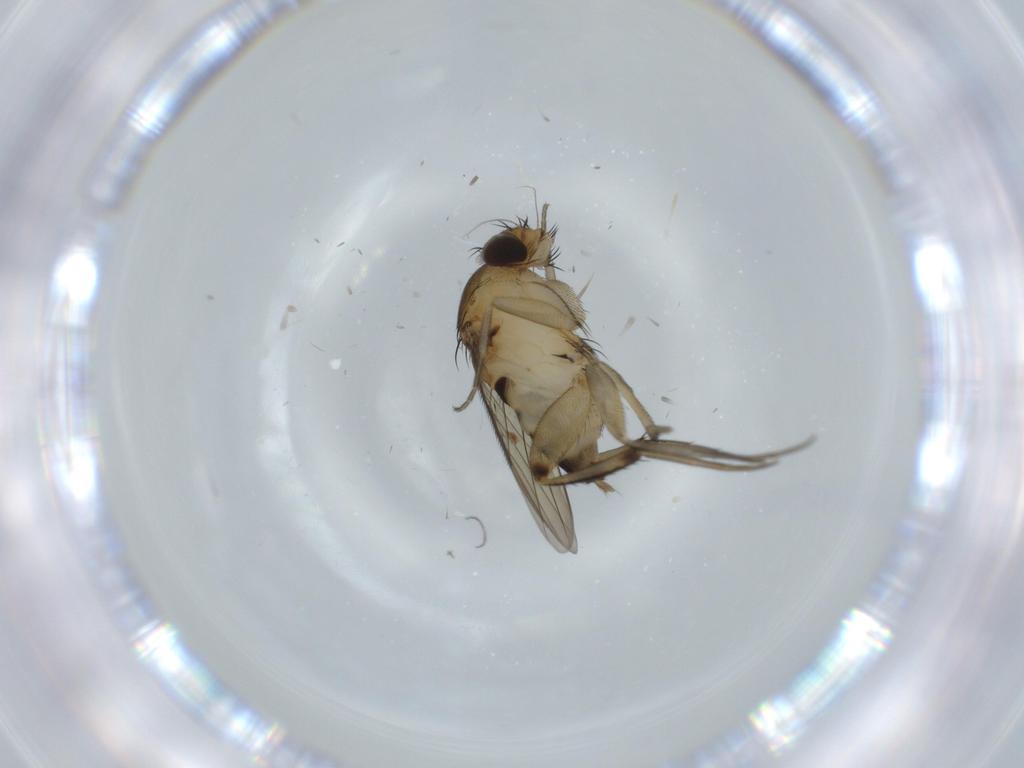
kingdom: Animalia
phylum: Arthropoda
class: Insecta
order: Diptera
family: Phoridae
